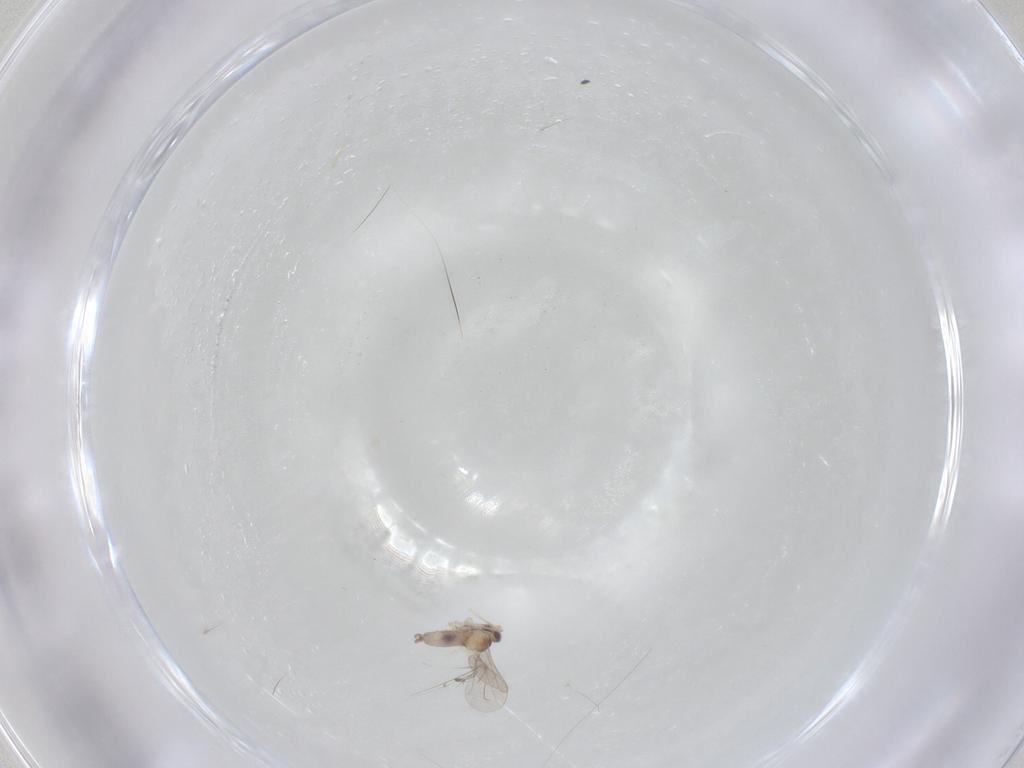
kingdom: Animalia
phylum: Arthropoda
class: Insecta
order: Diptera
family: Cecidomyiidae
